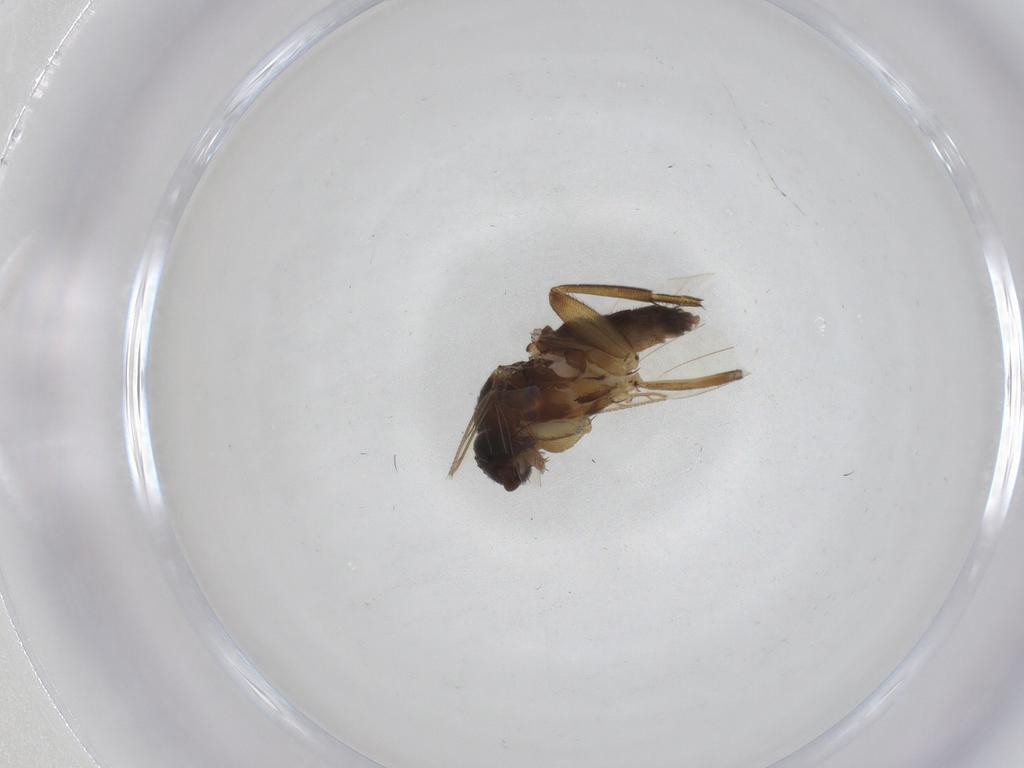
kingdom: Animalia
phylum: Arthropoda
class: Insecta
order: Diptera
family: Phoridae
